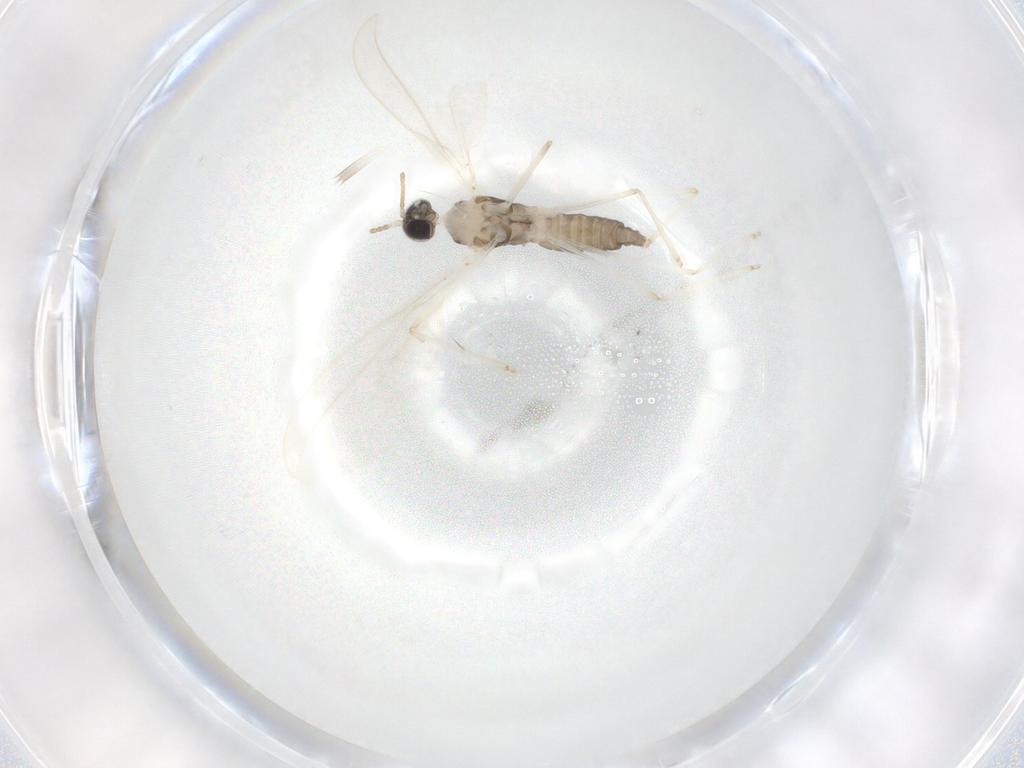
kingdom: Animalia
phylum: Arthropoda
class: Insecta
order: Diptera
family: Cecidomyiidae
